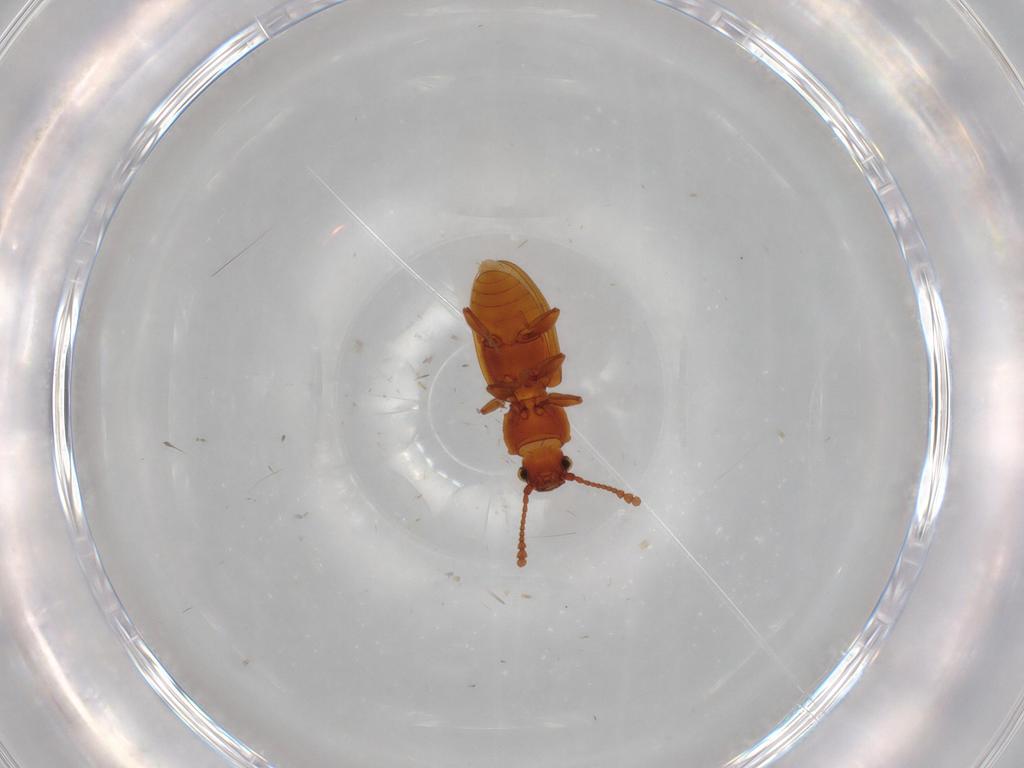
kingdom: Animalia
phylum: Arthropoda
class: Insecta
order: Coleoptera
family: Silvanidae
